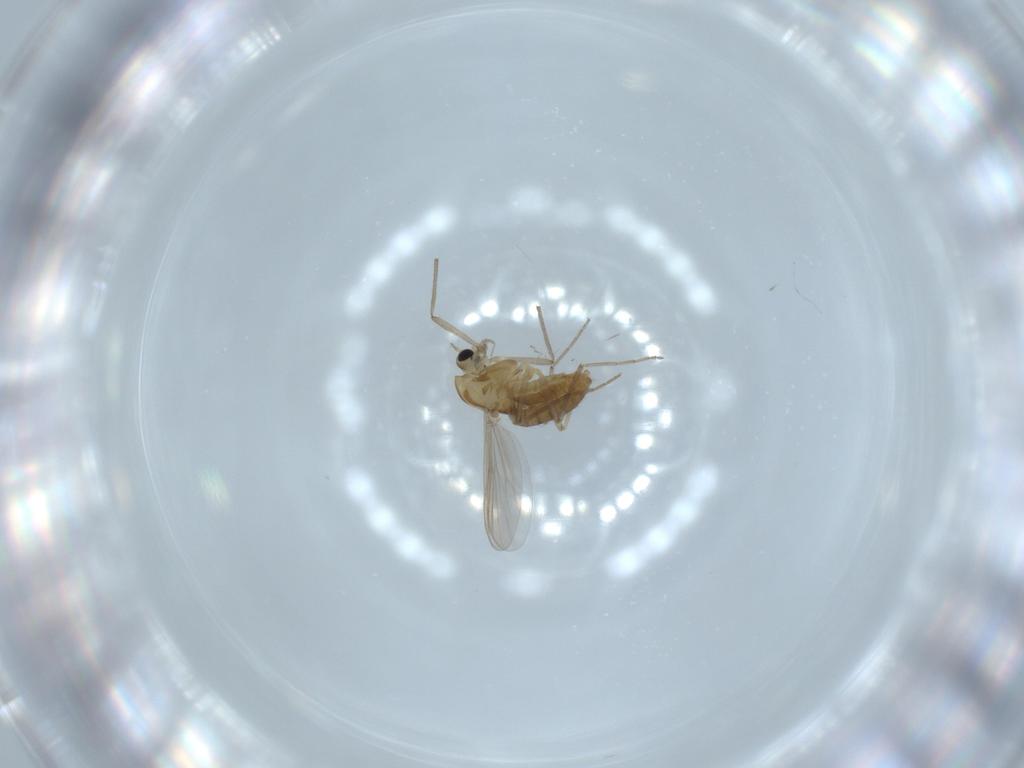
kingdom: Animalia
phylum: Arthropoda
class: Insecta
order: Diptera
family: Chironomidae
